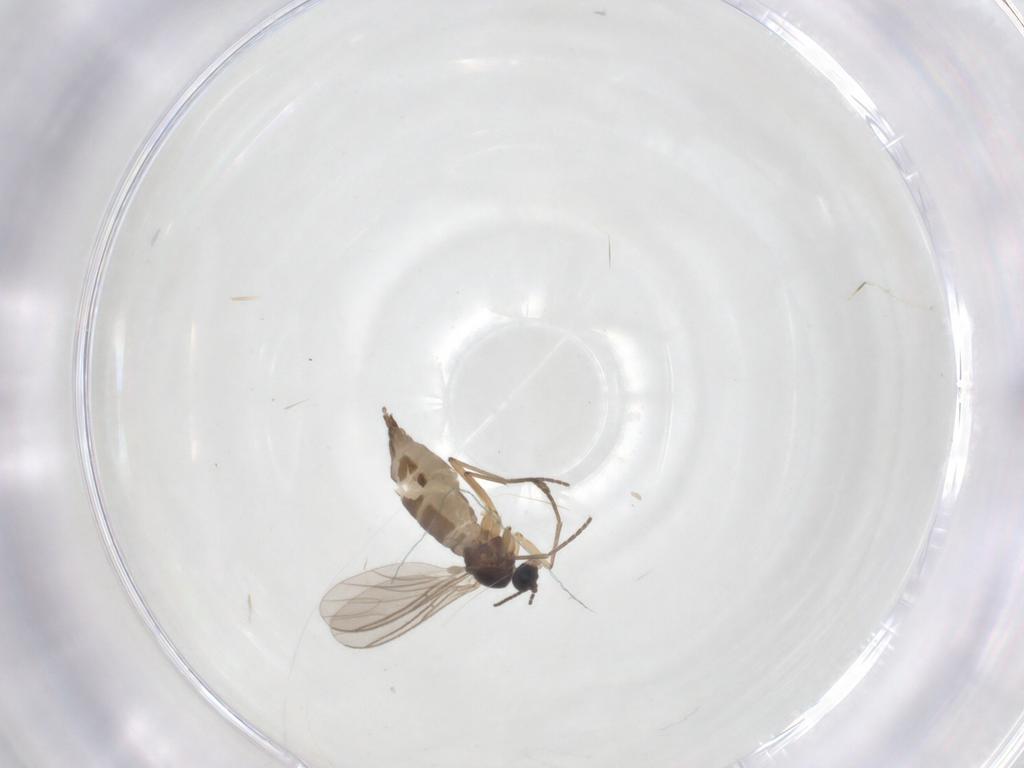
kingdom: Animalia
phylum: Arthropoda
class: Insecta
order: Diptera
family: Sciaridae
